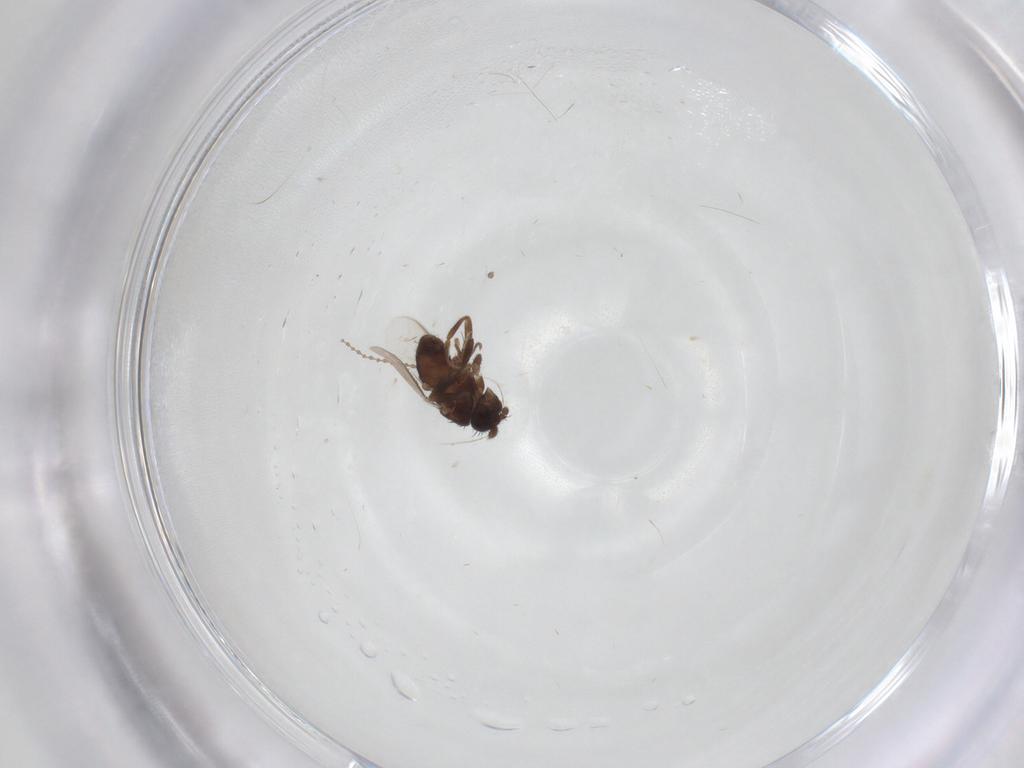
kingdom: Animalia
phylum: Arthropoda
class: Insecta
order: Diptera
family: Sphaeroceridae
